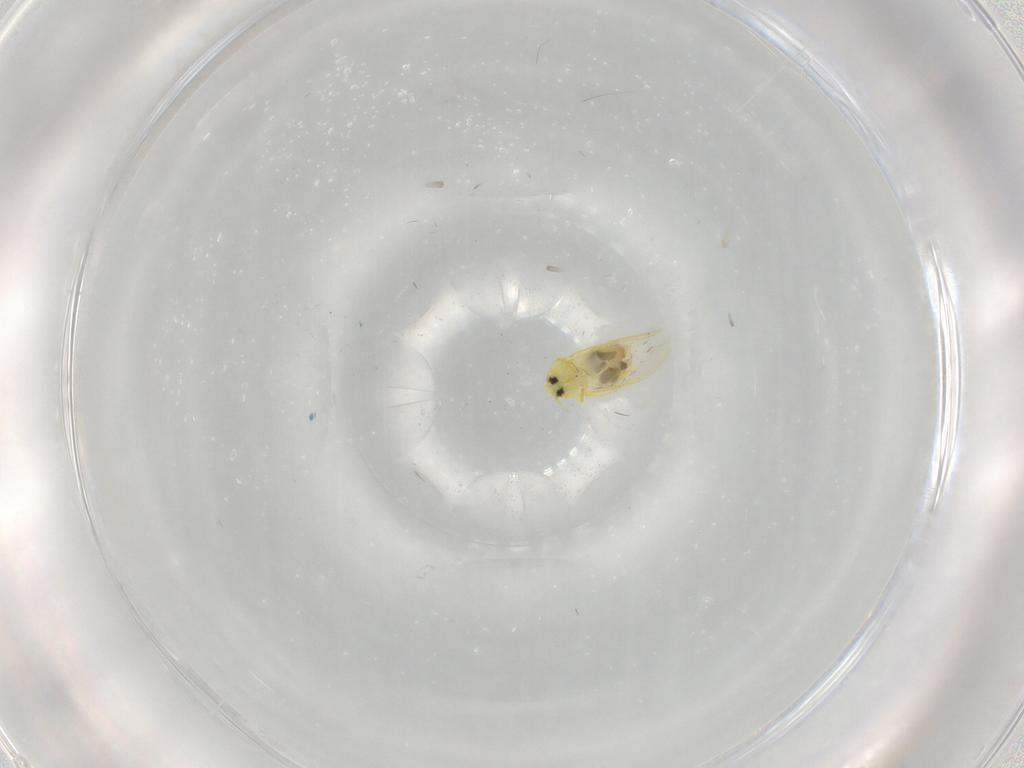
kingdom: Animalia
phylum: Arthropoda
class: Insecta
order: Hemiptera
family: Aleyrodidae
